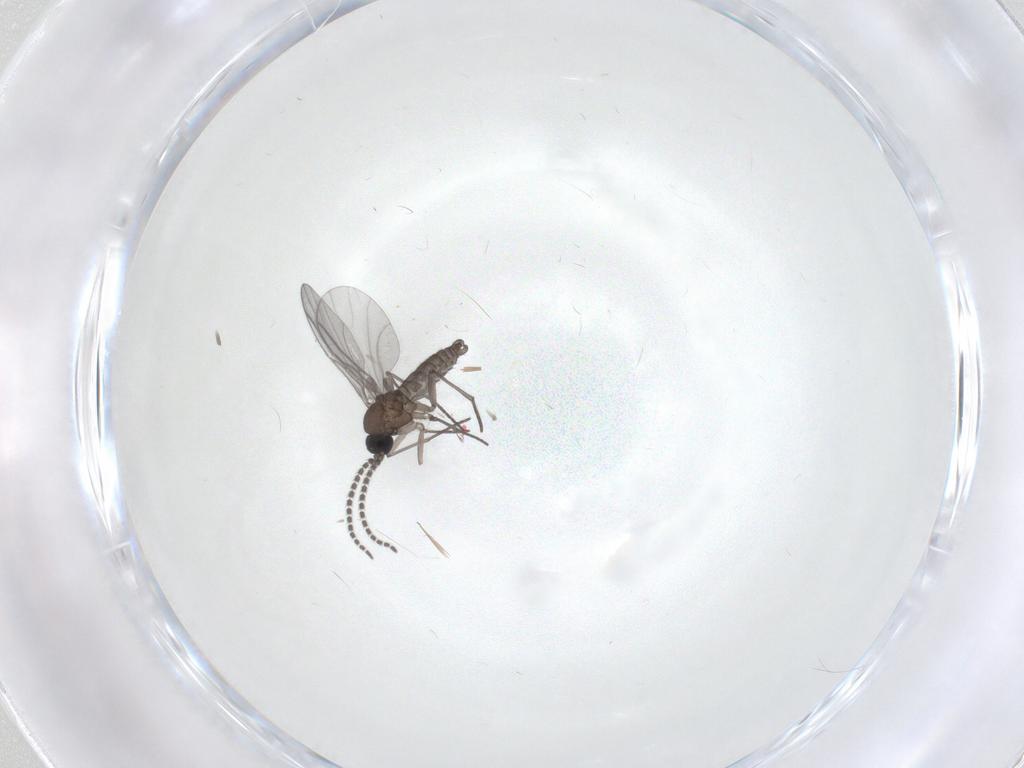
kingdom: Animalia
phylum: Arthropoda
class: Insecta
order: Diptera
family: Sciaridae
